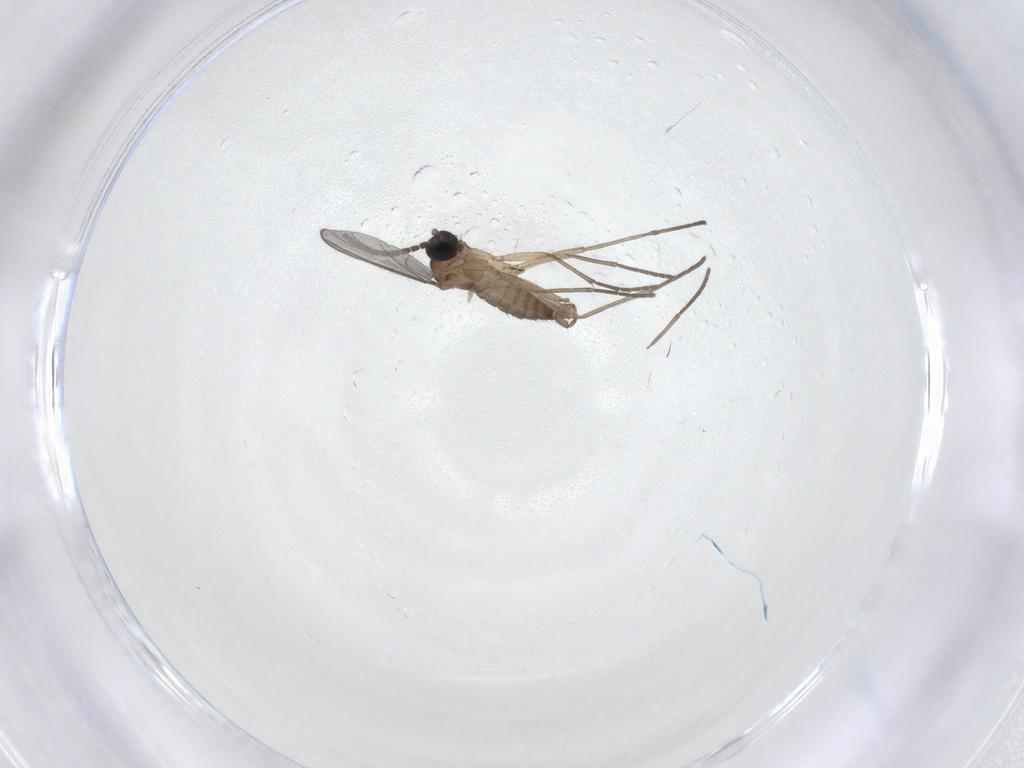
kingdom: Animalia
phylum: Arthropoda
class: Insecta
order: Diptera
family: Sciaridae
